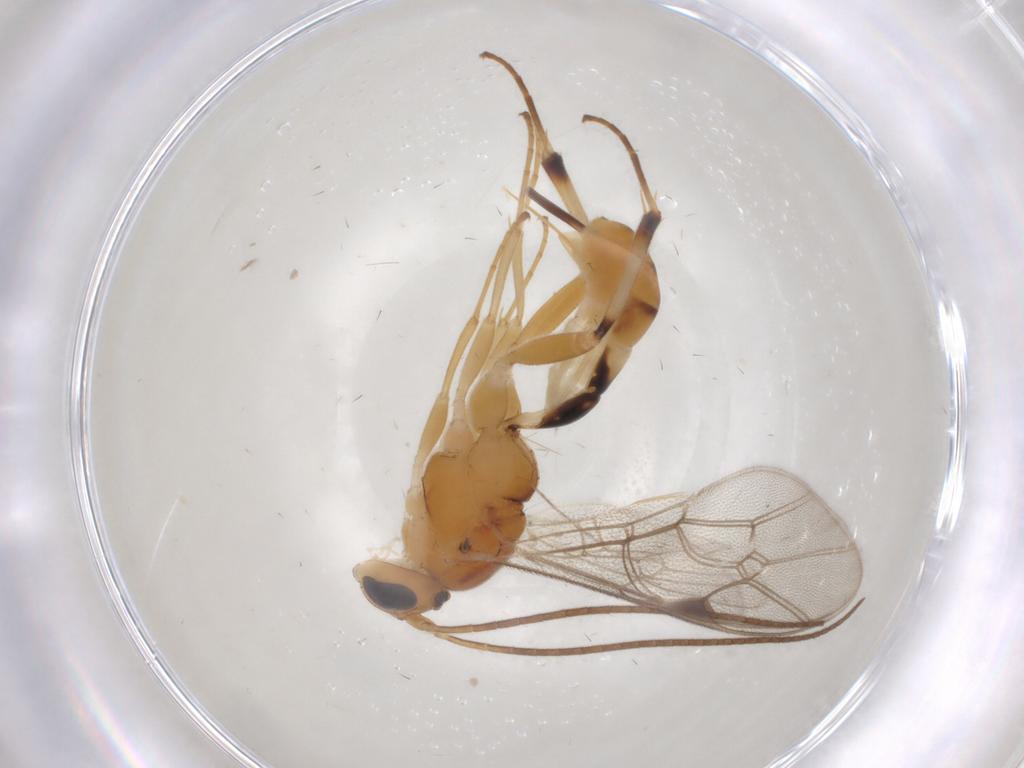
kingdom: Animalia
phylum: Arthropoda
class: Insecta
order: Hymenoptera
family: Ichneumonidae
